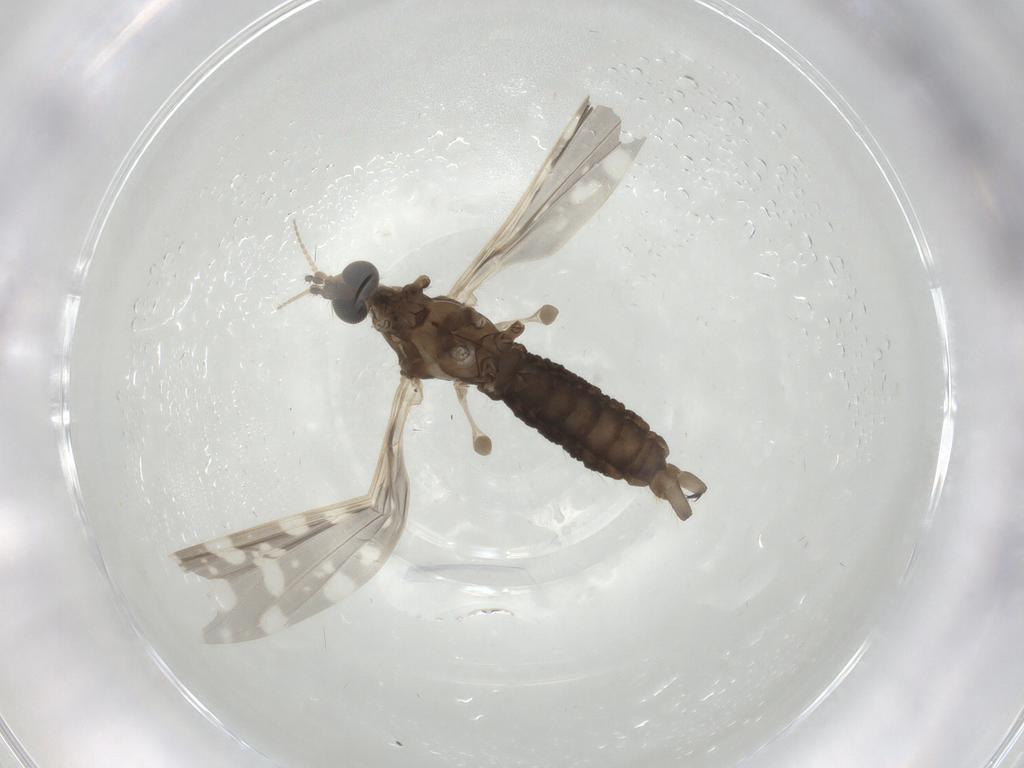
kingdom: Animalia
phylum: Arthropoda
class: Insecta
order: Diptera
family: Limoniidae
